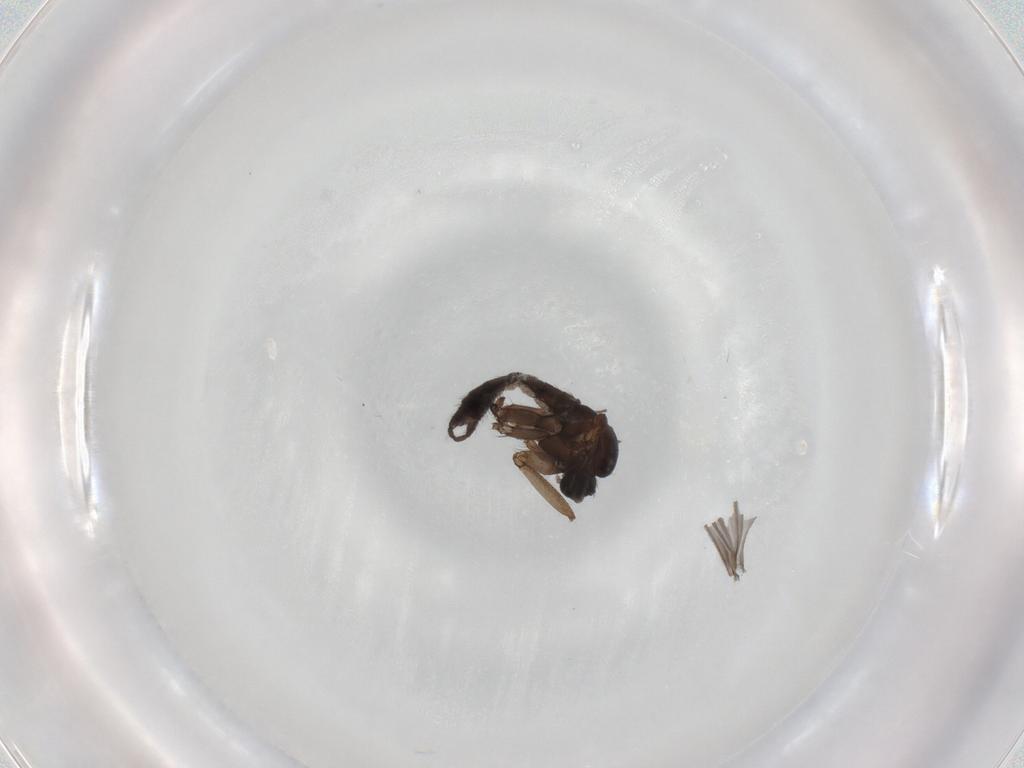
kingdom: Animalia
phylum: Arthropoda
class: Insecta
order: Diptera
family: Sciaridae
